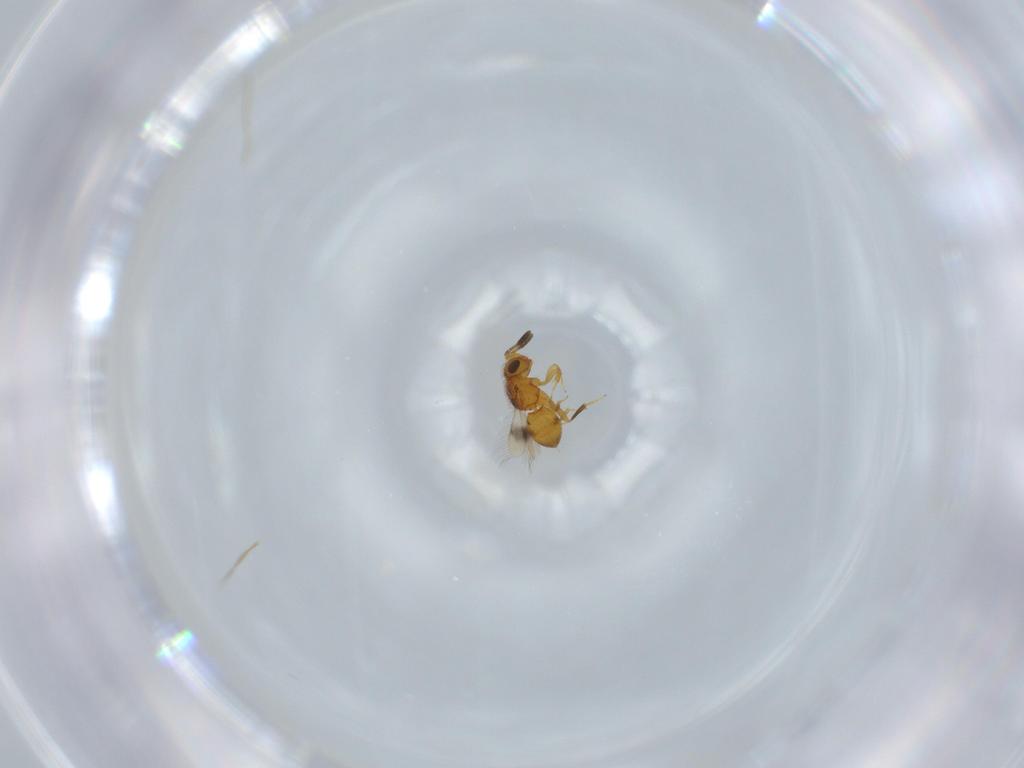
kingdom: Animalia
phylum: Arthropoda
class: Insecta
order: Hymenoptera
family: Scelionidae
